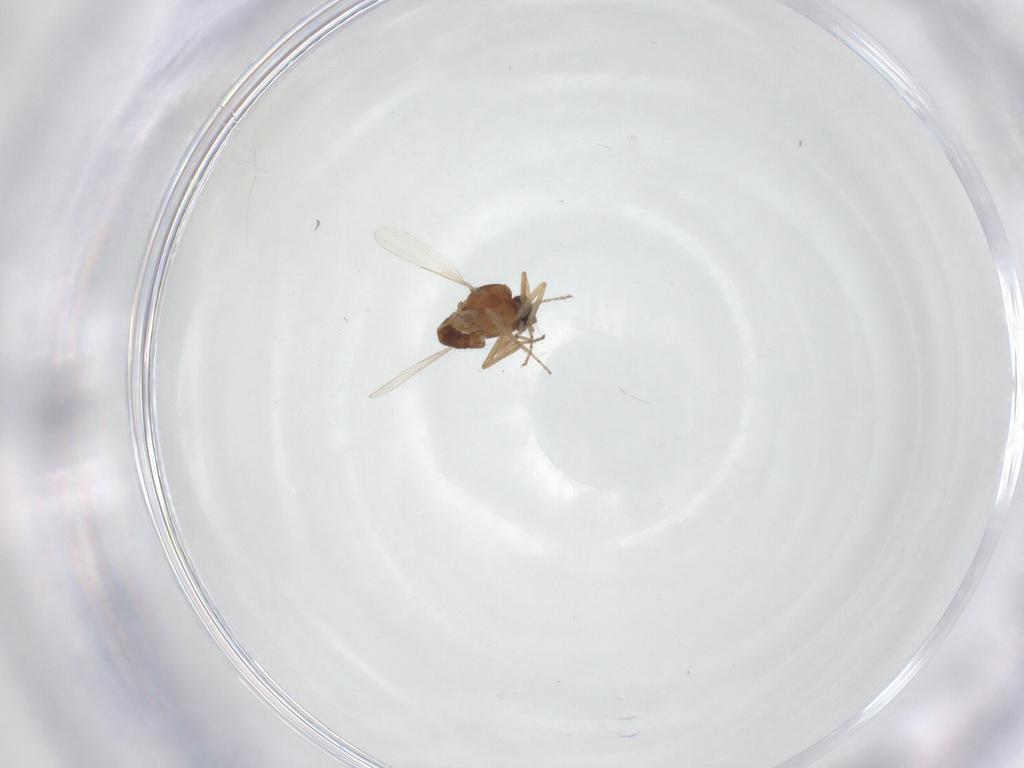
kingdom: Animalia
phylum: Arthropoda
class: Insecta
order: Diptera
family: Ceratopogonidae
